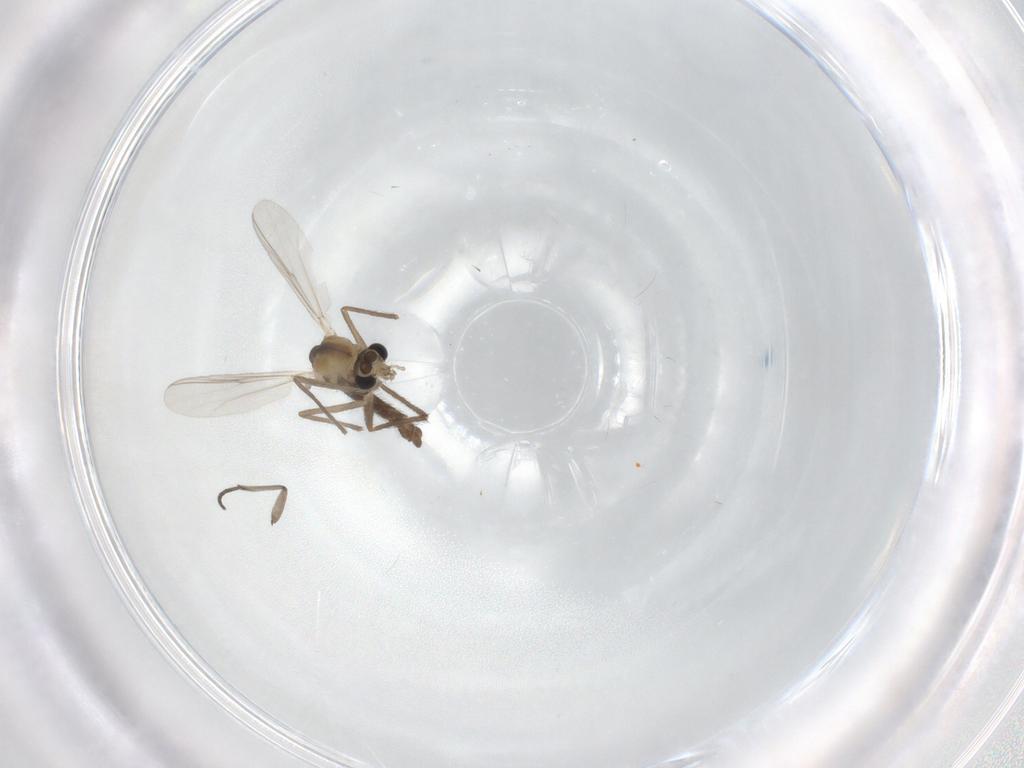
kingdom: Animalia
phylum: Arthropoda
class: Insecta
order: Diptera
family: Chironomidae
